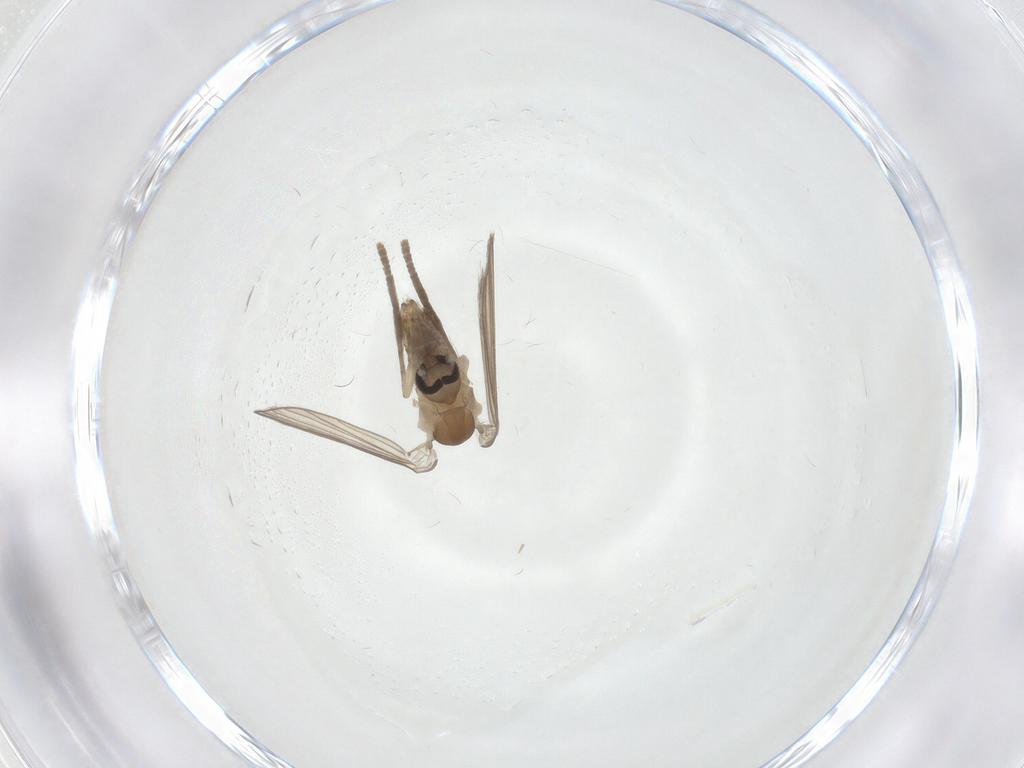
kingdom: Animalia
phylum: Arthropoda
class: Insecta
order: Diptera
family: Psychodidae
